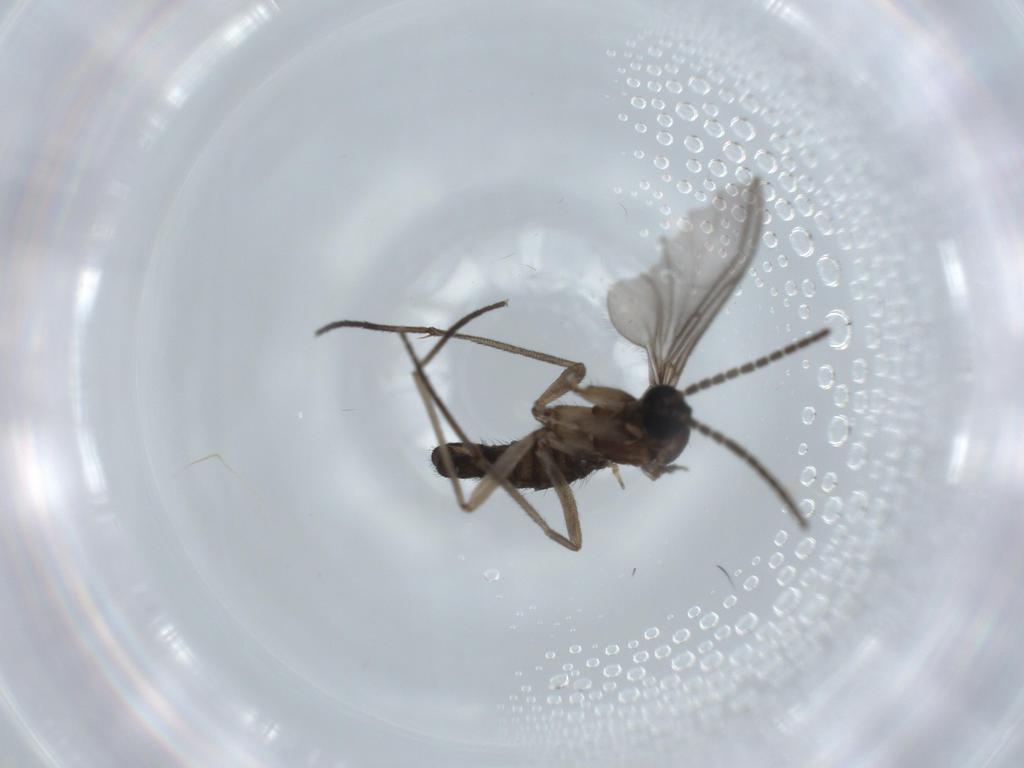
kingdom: Animalia
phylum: Arthropoda
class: Insecta
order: Diptera
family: Sciaridae
